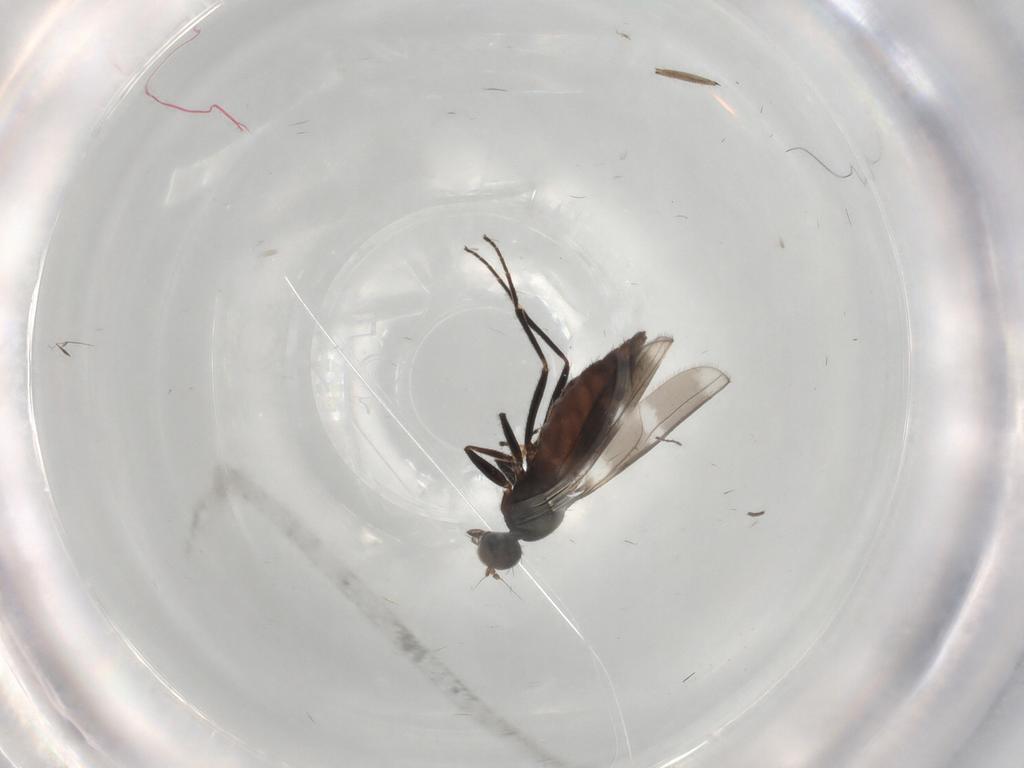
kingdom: Animalia
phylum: Arthropoda
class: Insecta
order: Diptera
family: Hybotidae
